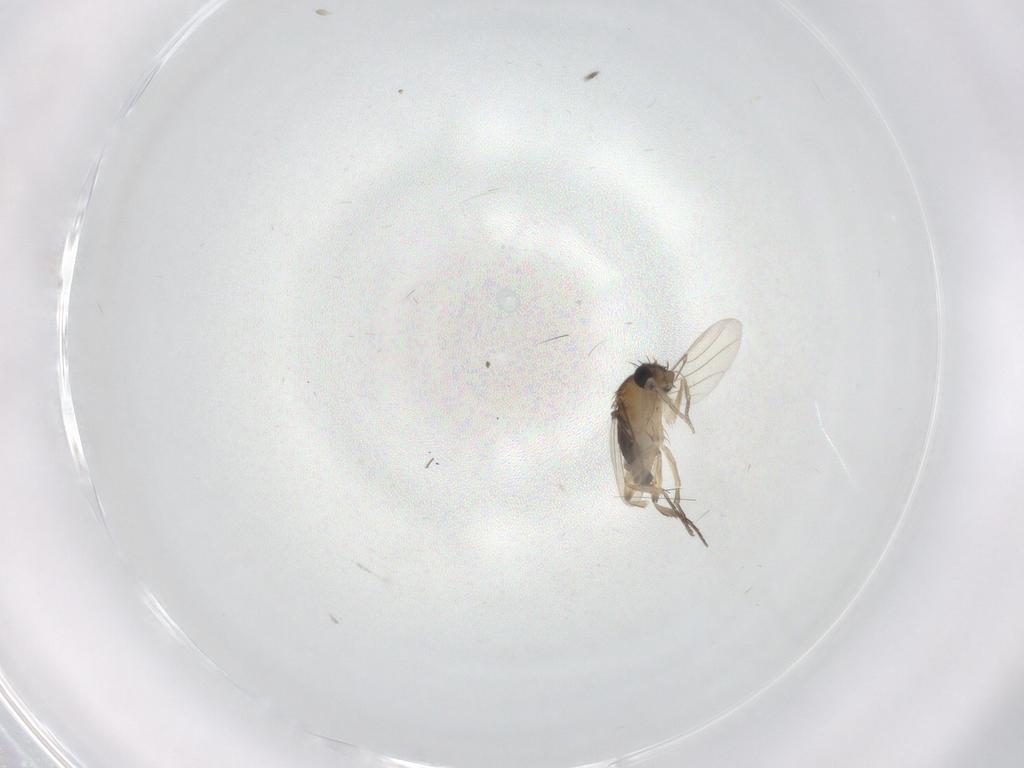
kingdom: Animalia
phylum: Arthropoda
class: Insecta
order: Diptera
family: Phoridae
